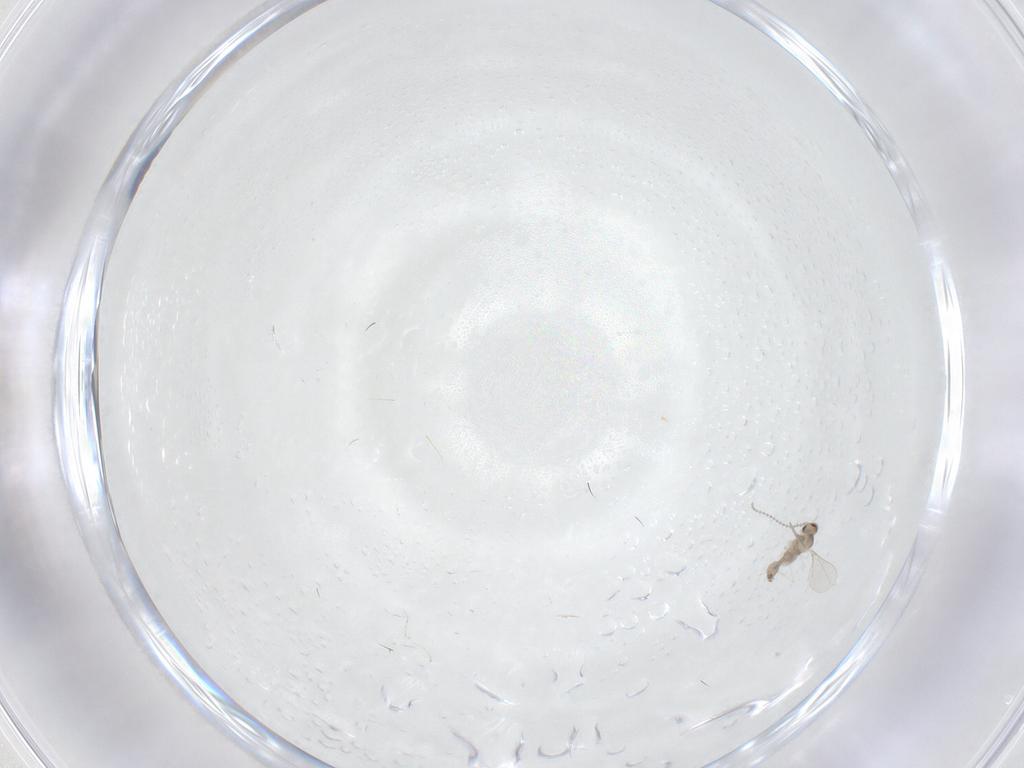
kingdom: Animalia
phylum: Arthropoda
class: Insecta
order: Diptera
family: Cecidomyiidae
